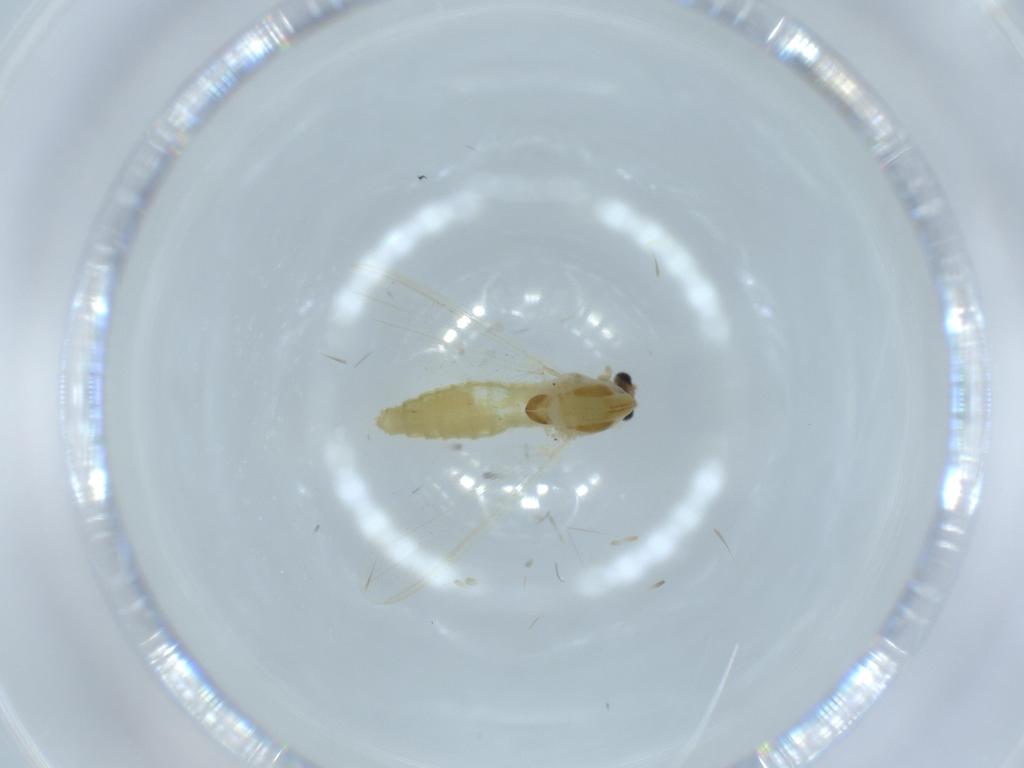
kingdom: Animalia
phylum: Arthropoda
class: Insecta
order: Diptera
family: Chironomidae
